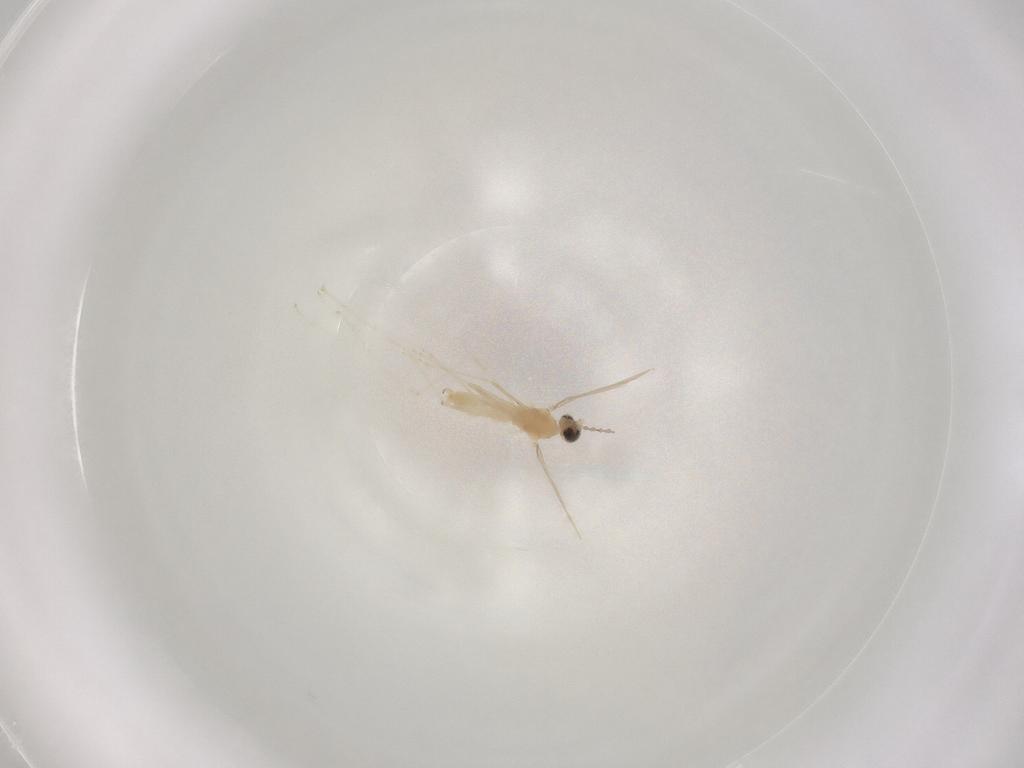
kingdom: Animalia
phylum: Arthropoda
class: Insecta
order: Diptera
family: Cecidomyiidae
